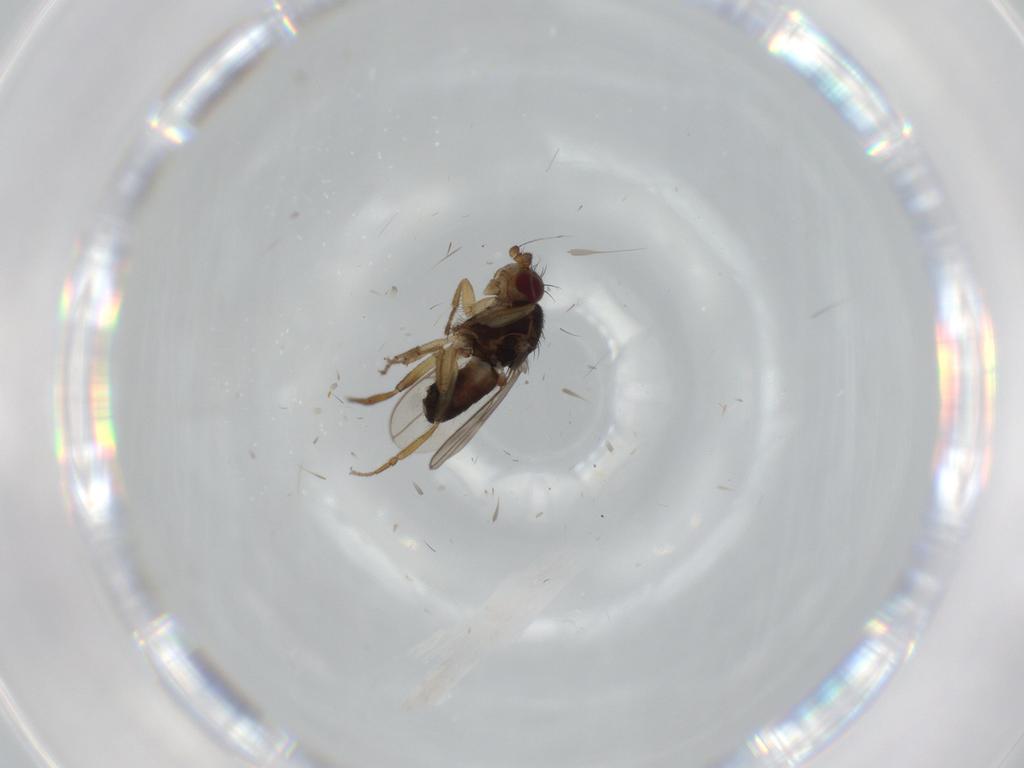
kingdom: Animalia
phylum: Arthropoda
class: Insecta
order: Diptera
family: Sphaeroceridae
